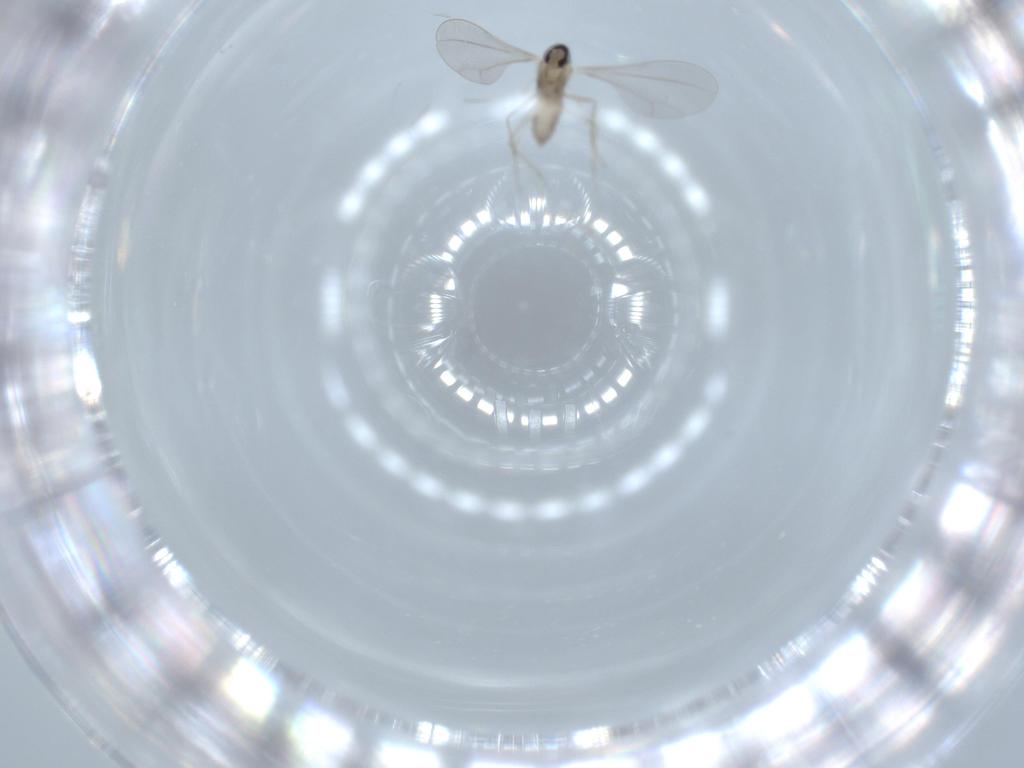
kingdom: Animalia
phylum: Arthropoda
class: Insecta
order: Diptera
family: Cecidomyiidae
